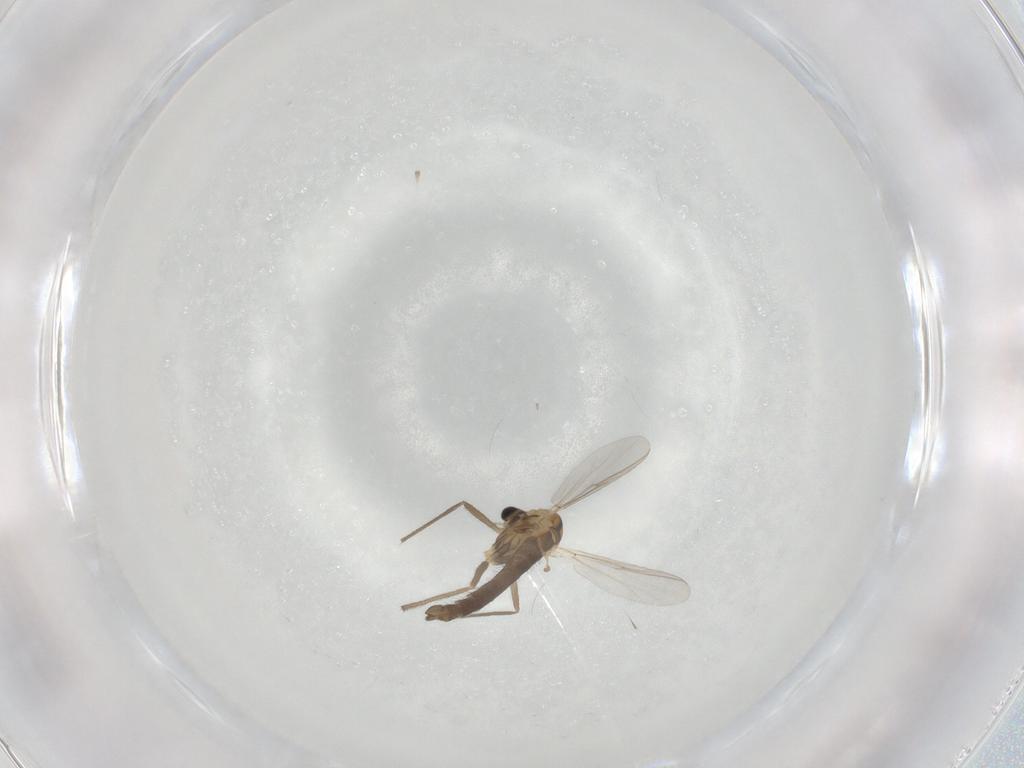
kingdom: Animalia
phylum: Arthropoda
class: Insecta
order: Diptera
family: Chironomidae
